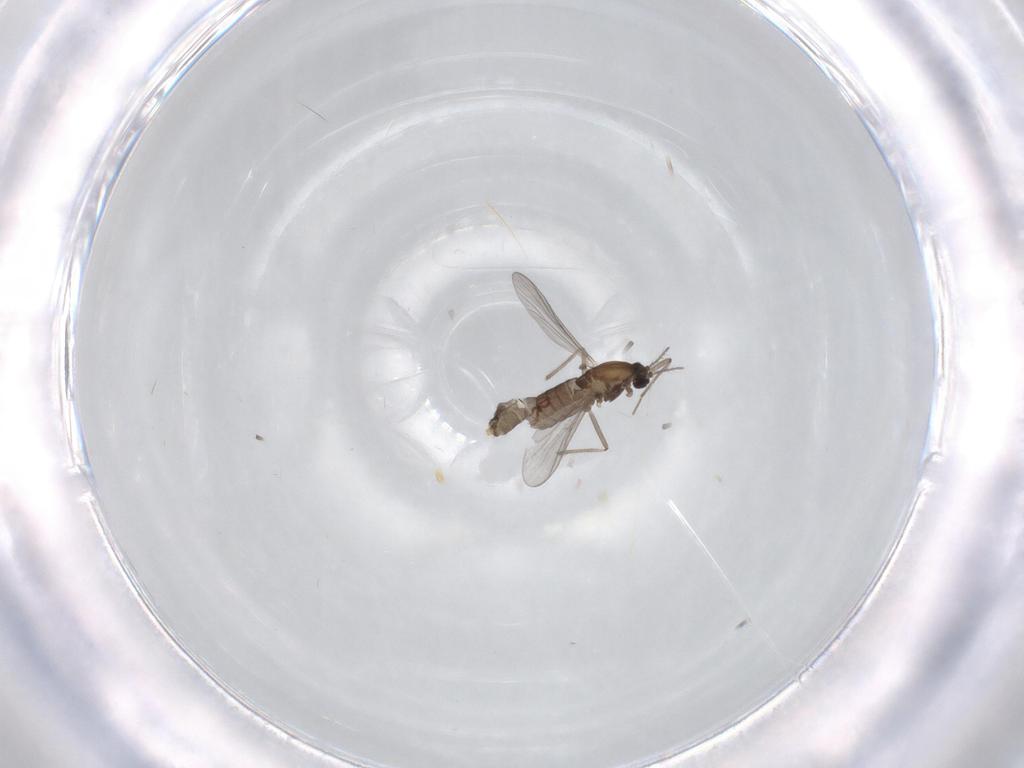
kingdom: Animalia
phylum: Arthropoda
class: Insecta
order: Diptera
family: Chironomidae
